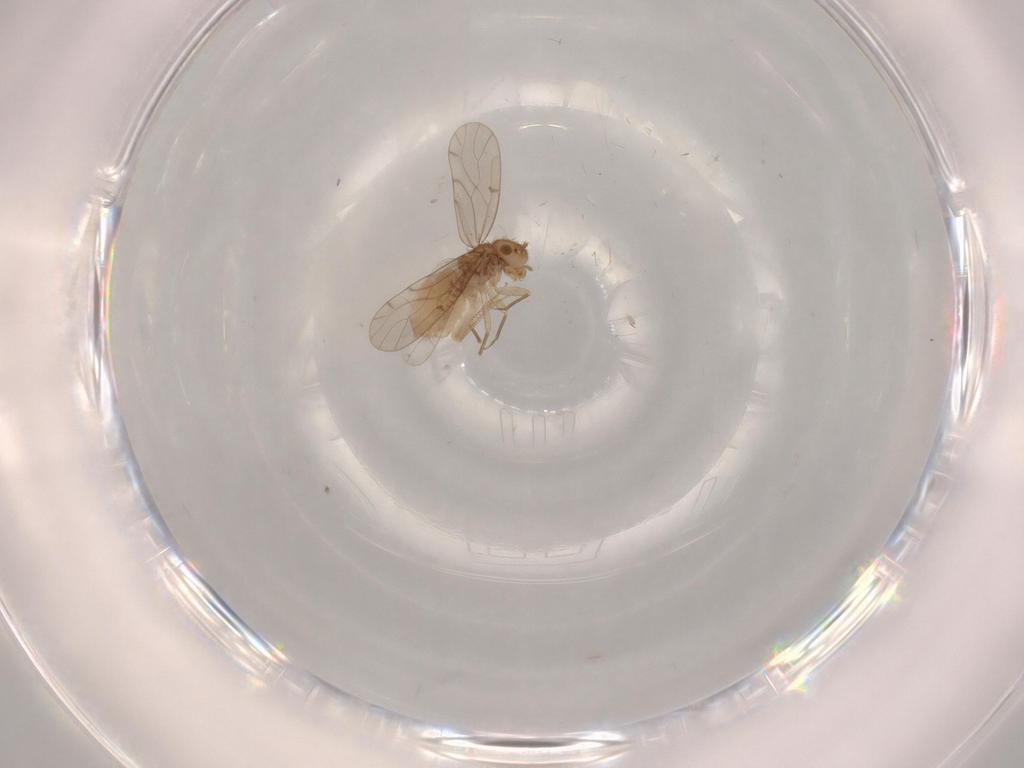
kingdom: Animalia
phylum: Arthropoda
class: Insecta
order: Psocodea
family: Ectopsocidae
